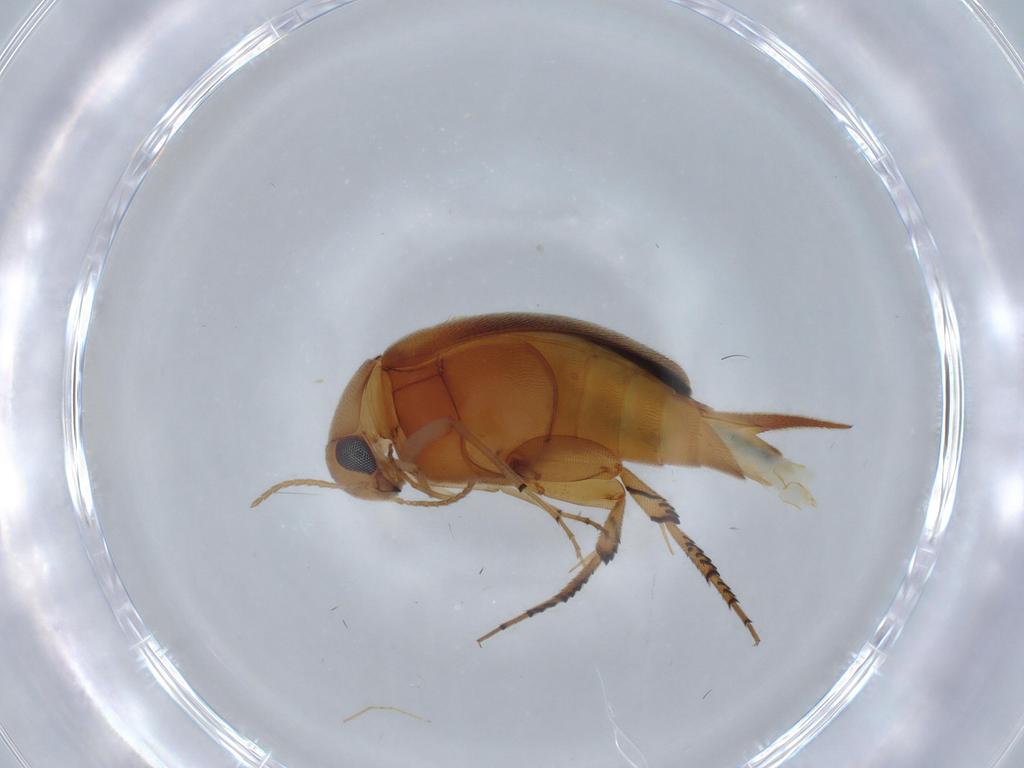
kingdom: Animalia
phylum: Arthropoda
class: Insecta
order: Coleoptera
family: Mordellidae
